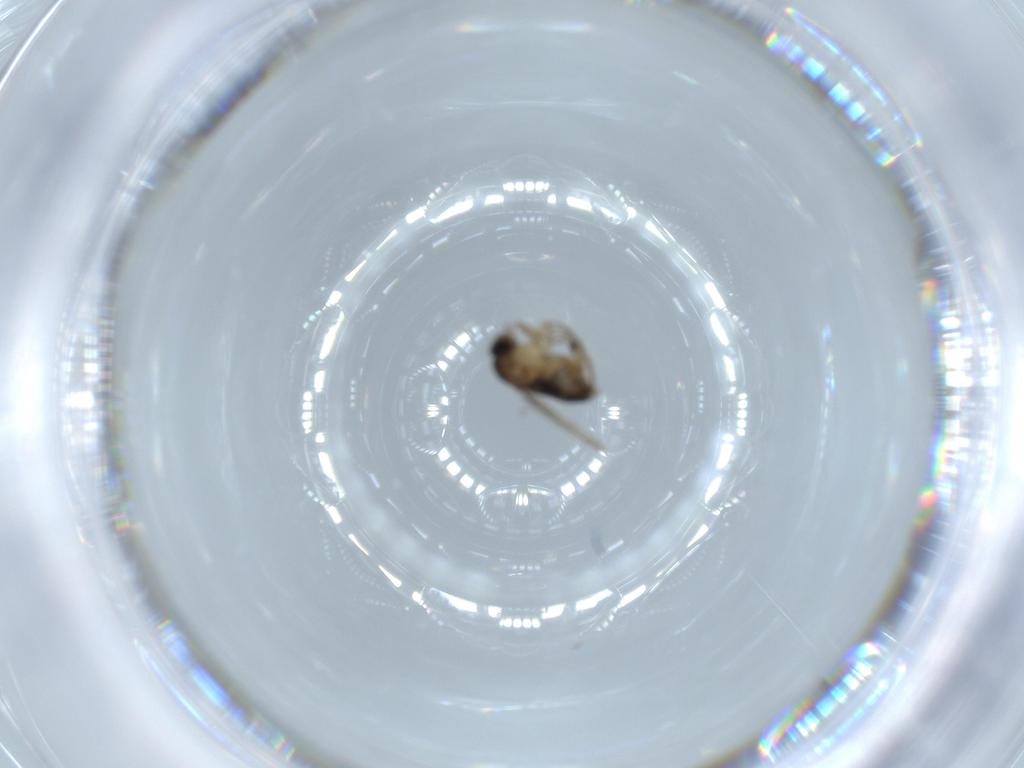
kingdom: Animalia
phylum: Arthropoda
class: Insecta
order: Diptera
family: Phoridae
